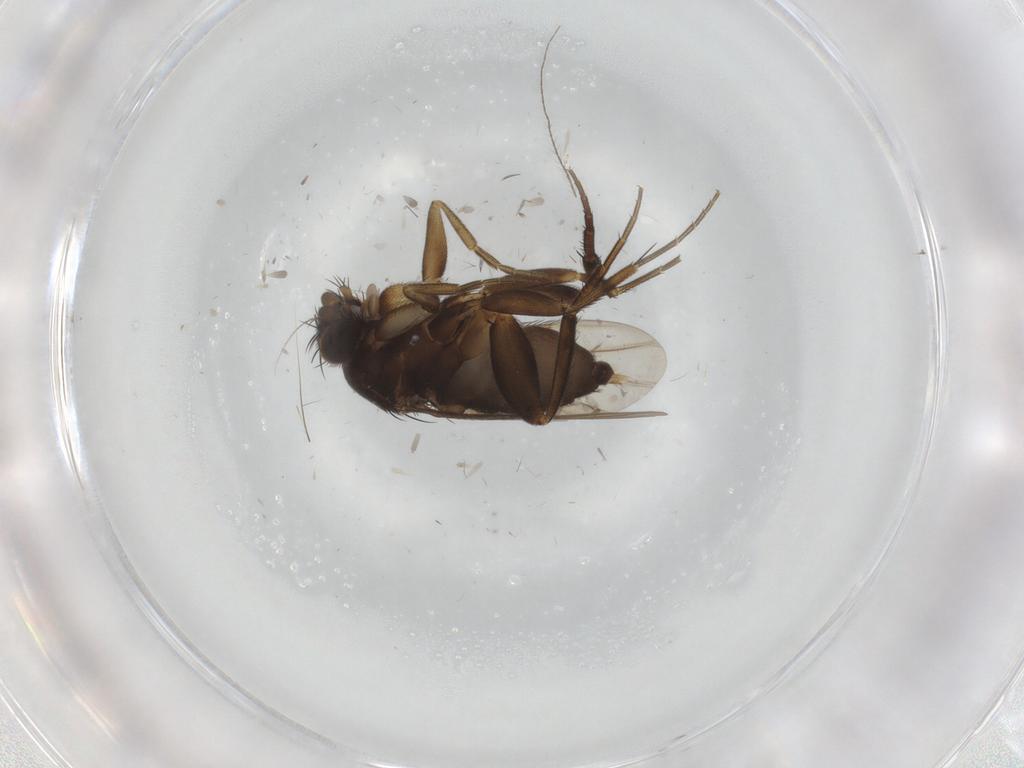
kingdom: Animalia
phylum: Arthropoda
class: Insecta
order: Diptera
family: Phoridae
